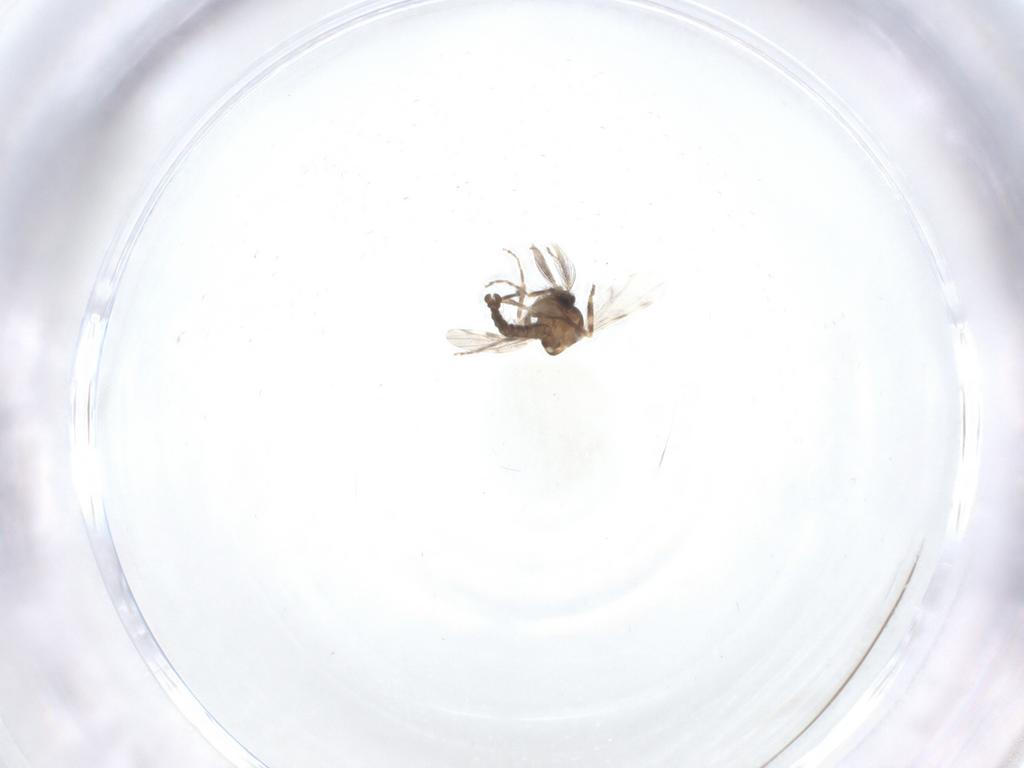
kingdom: Animalia
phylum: Arthropoda
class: Insecta
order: Diptera
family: Ceratopogonidae
